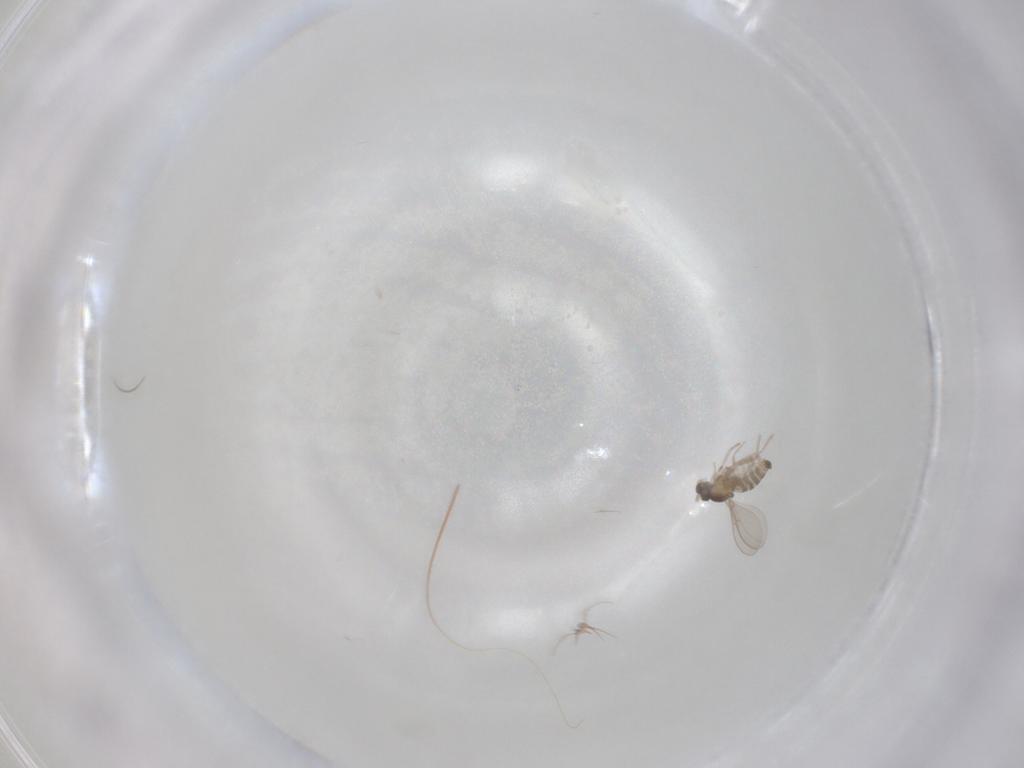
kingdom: Animalia
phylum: Arthropoda
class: Insecta
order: Diptera
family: Cecidomyiidae
